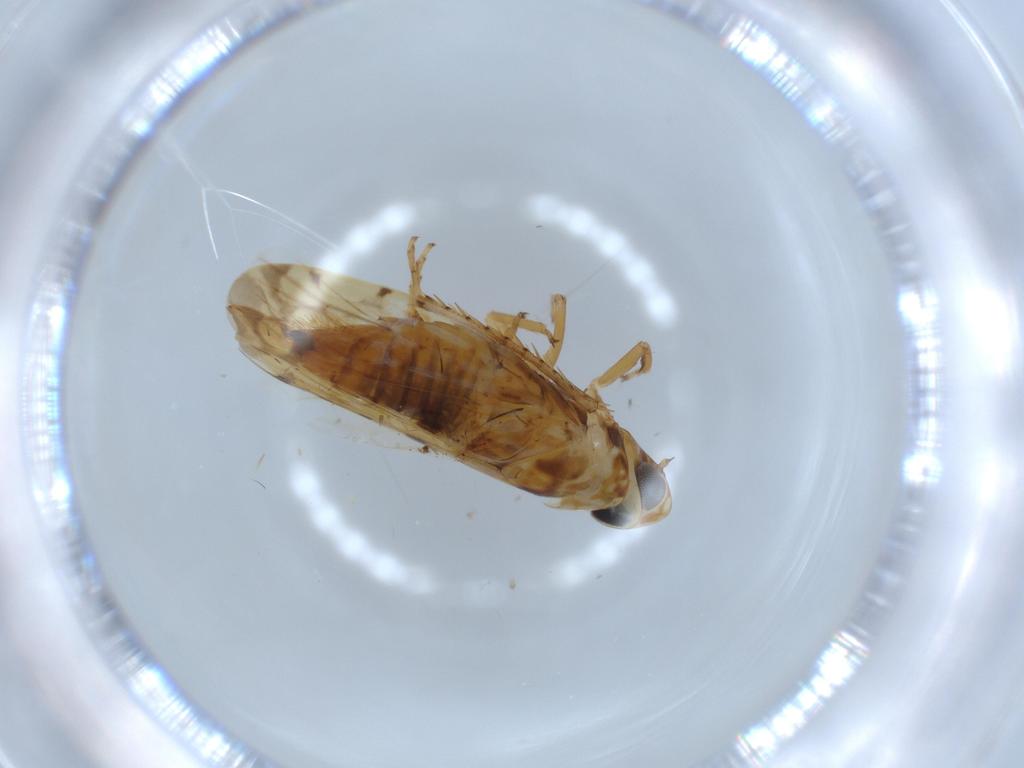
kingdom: Animalia
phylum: Arthropoda
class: Insecta
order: Hemiptera
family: Cicadellidae
